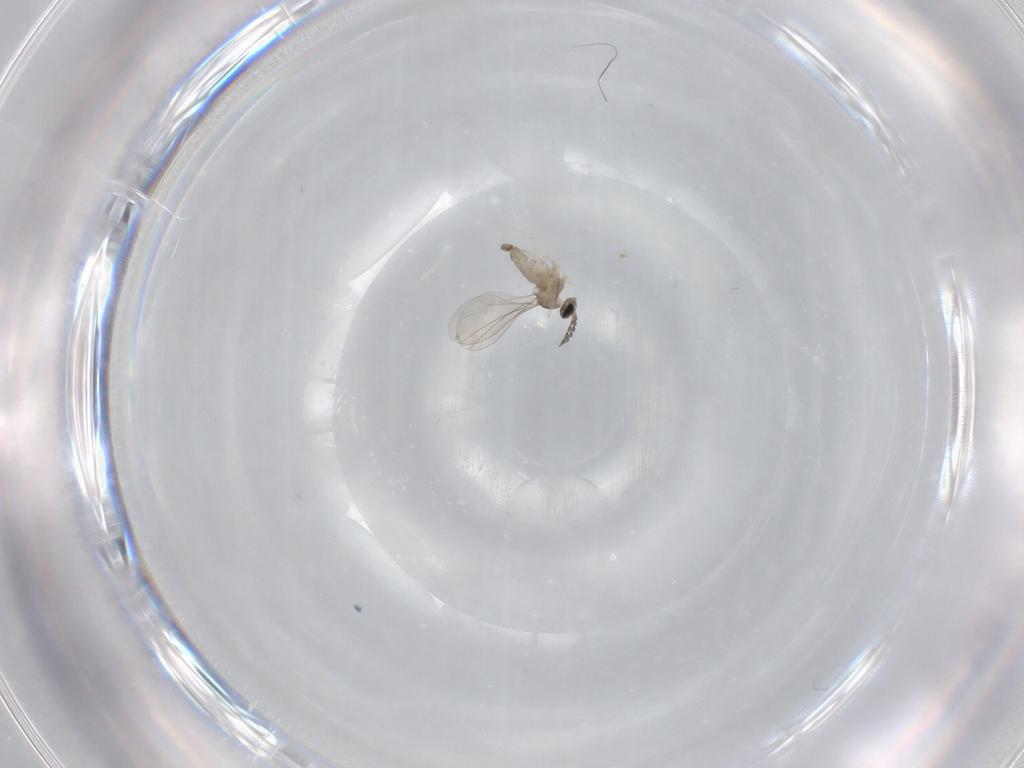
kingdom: Animalia
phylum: Arthropoda
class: Insecta
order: Diptera
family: Cecidomyiidae
